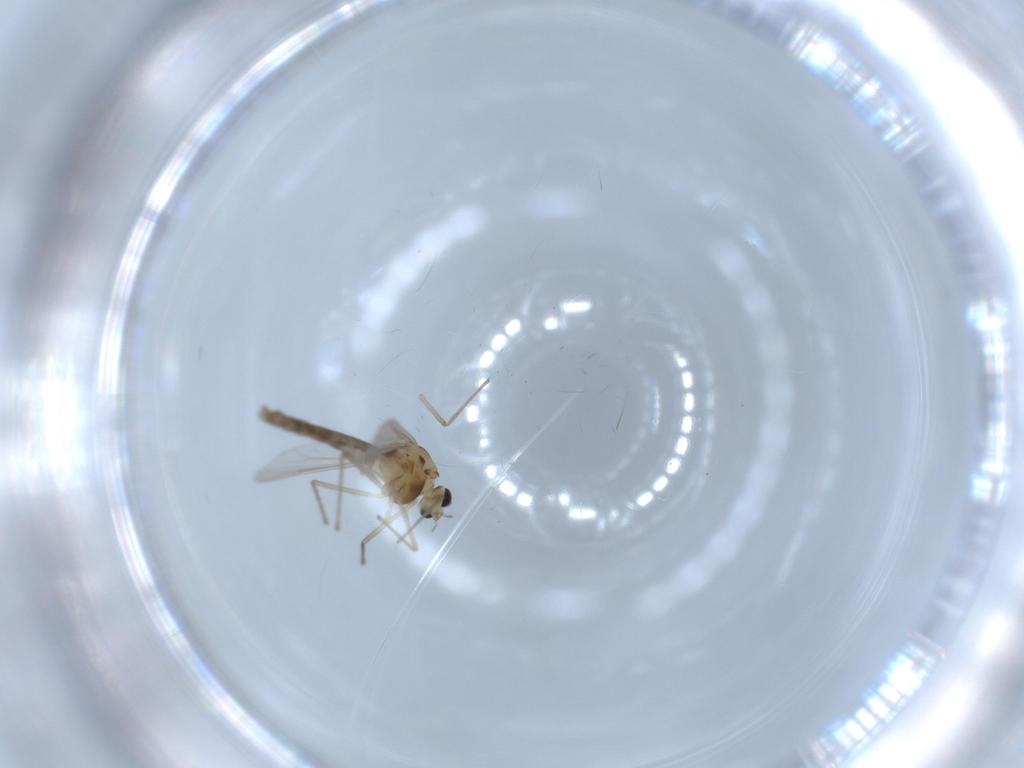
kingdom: Animalia
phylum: Arthropoda
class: Insecta
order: Diptera
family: Chironomidae
